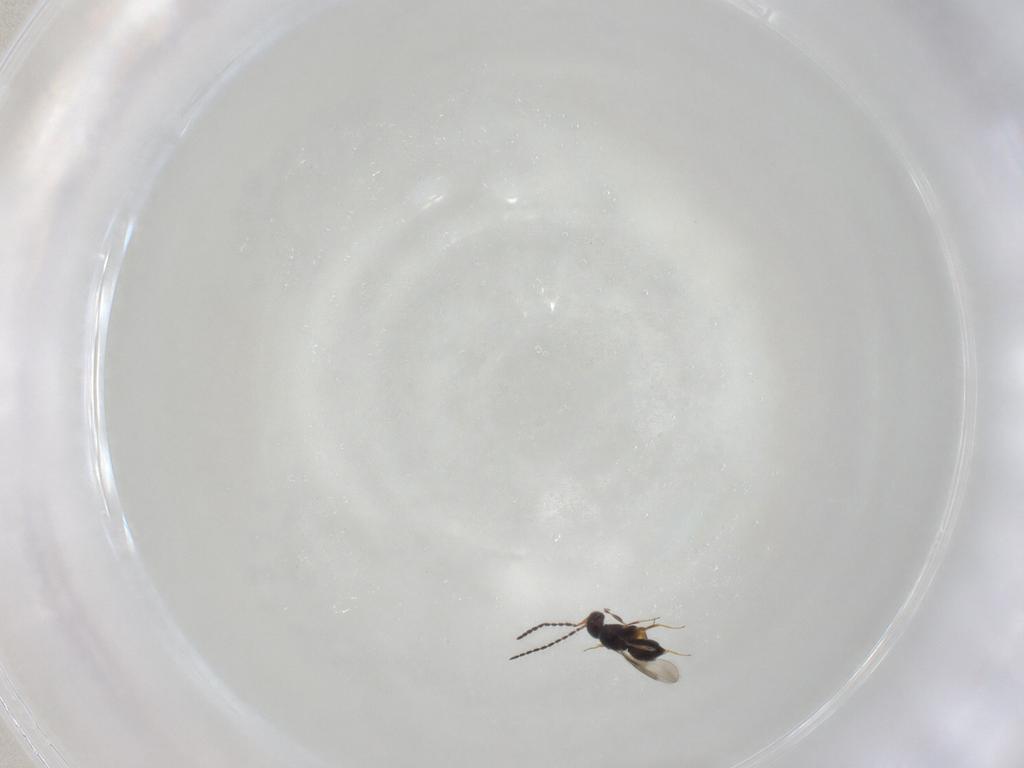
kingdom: Animalia
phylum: Arthropoda
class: Insecta
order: Hymenoptera
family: Ceraphronidae
